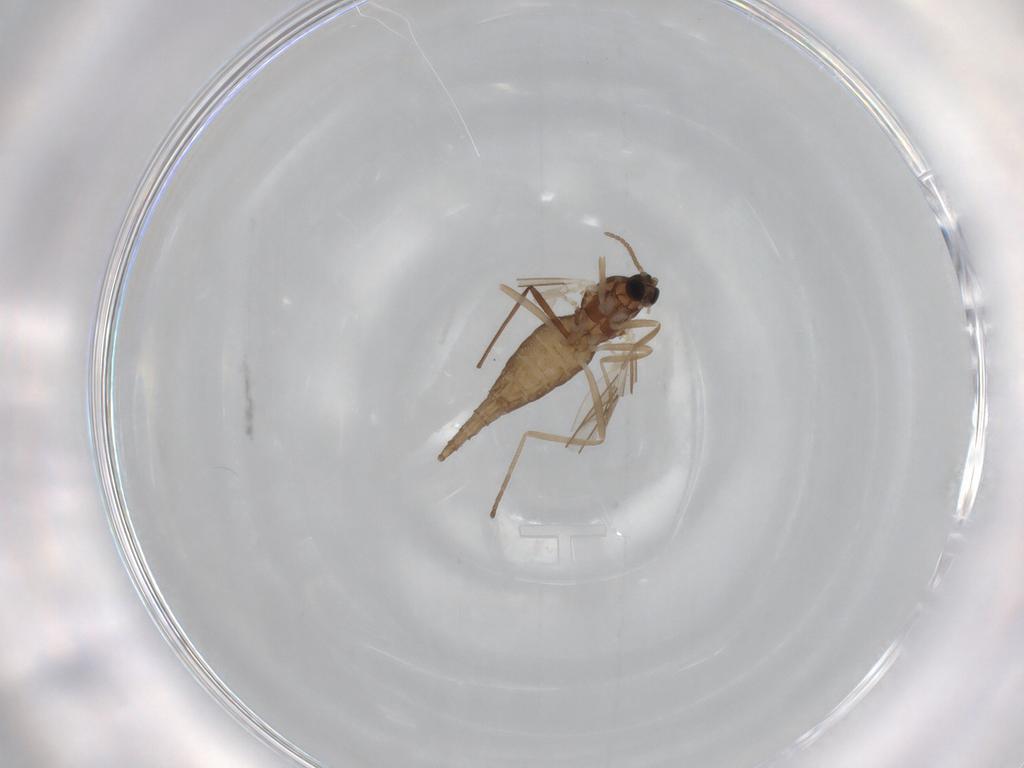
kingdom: Animalia
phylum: Arthropoda
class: Insecta
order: Diptera
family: Cecidomyiidae
